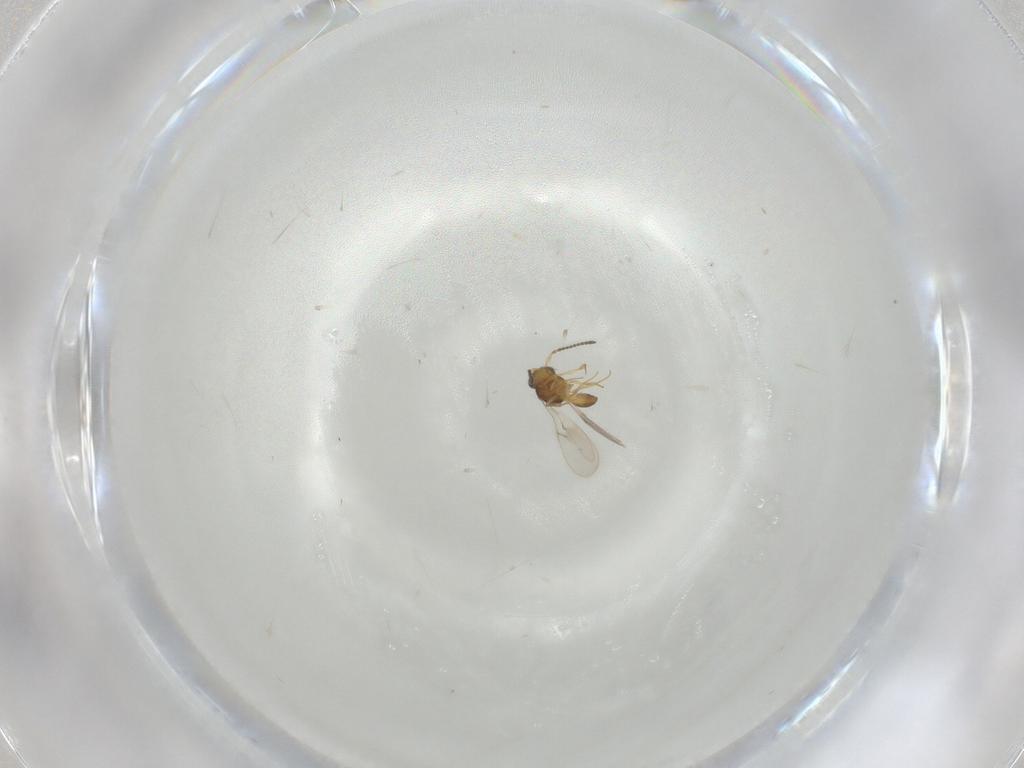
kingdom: Animalia
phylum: Arthropoda
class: Insecta
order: Hymenoptera
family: Scelionidae
